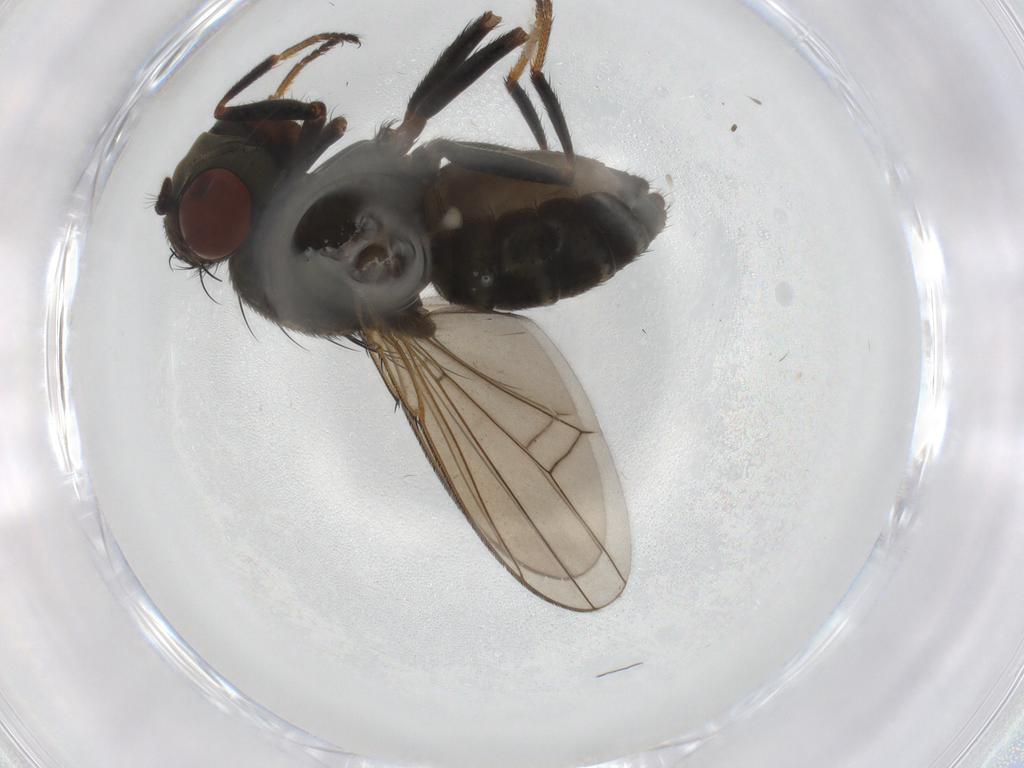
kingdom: Animalia
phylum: Arthropoda
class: Insecta
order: Diptera
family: Ephydridae
